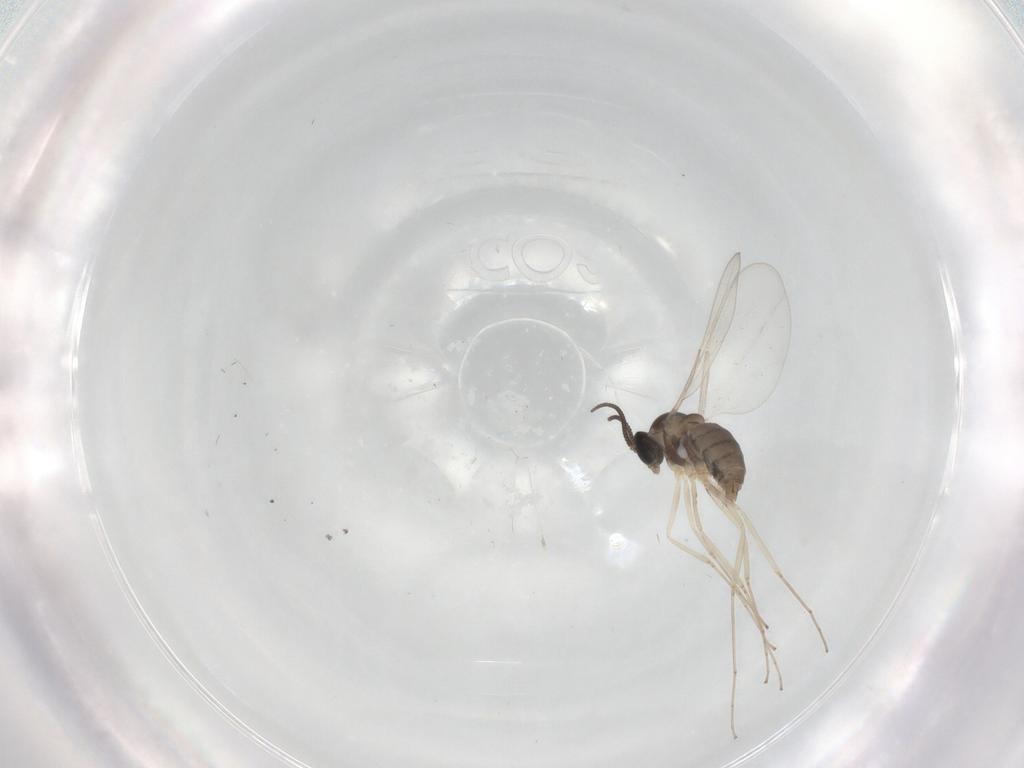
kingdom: Animalia
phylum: Arthropoda
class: Insecta
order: Diptera
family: Cecidomyiidae
